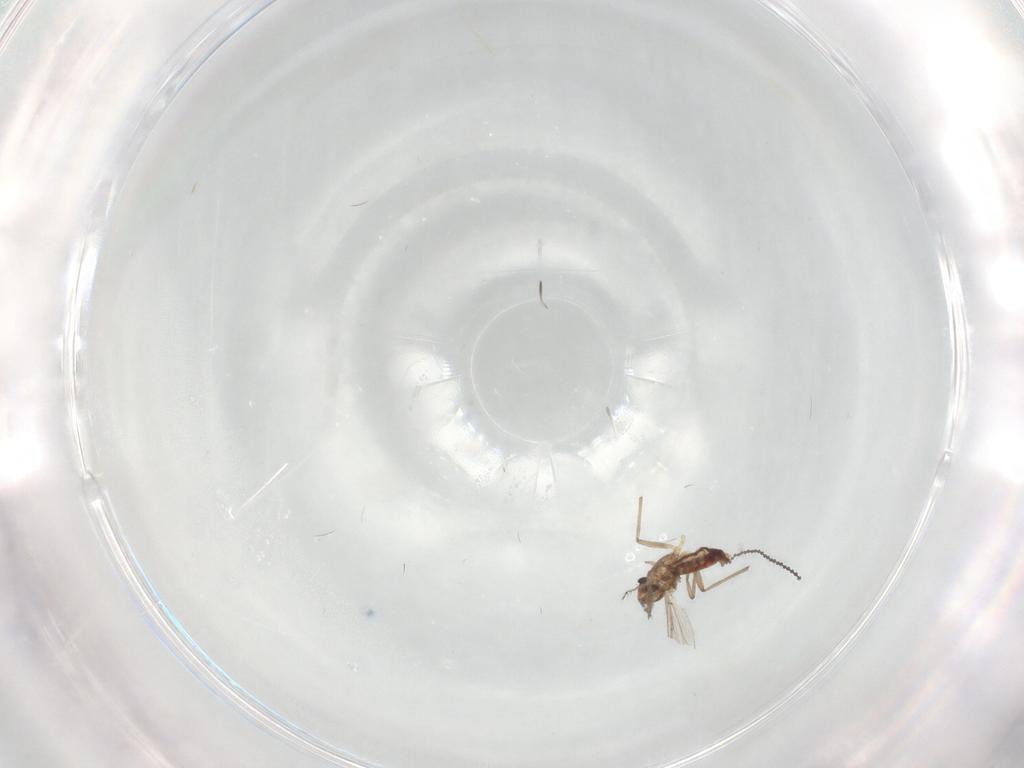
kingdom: Animalia
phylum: Arthropoda
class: Insecta
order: Diptera
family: Chironomidae
